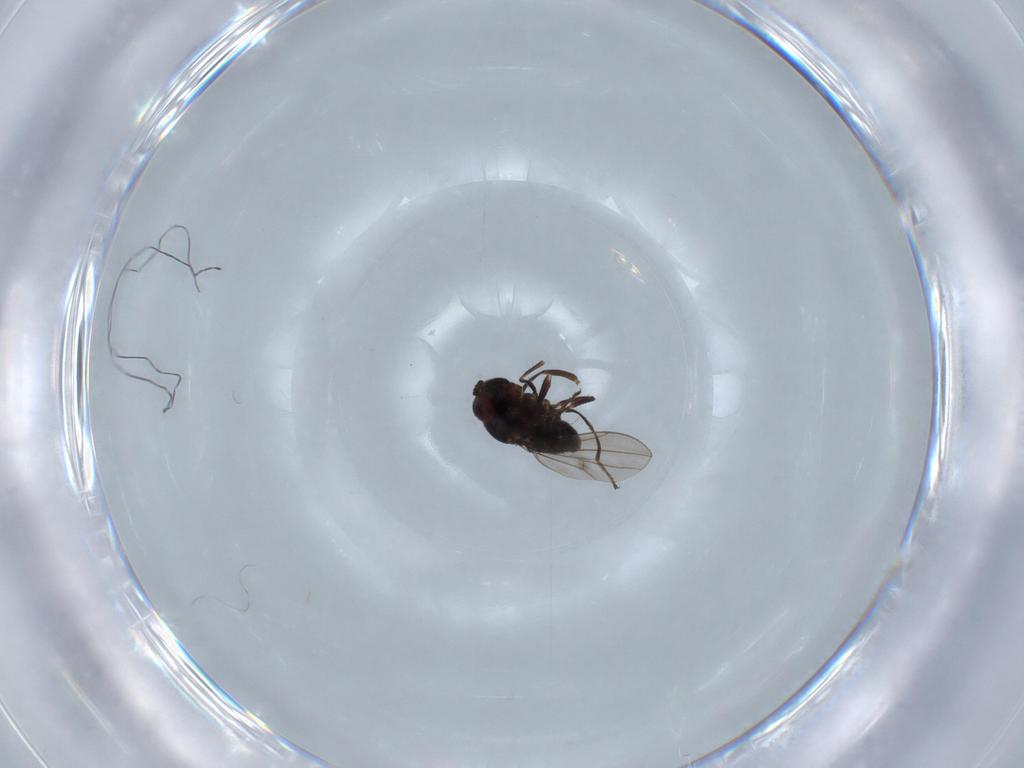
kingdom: Animalia
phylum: Arthropoda
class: Insecta
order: Diptera
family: Ephydridae
